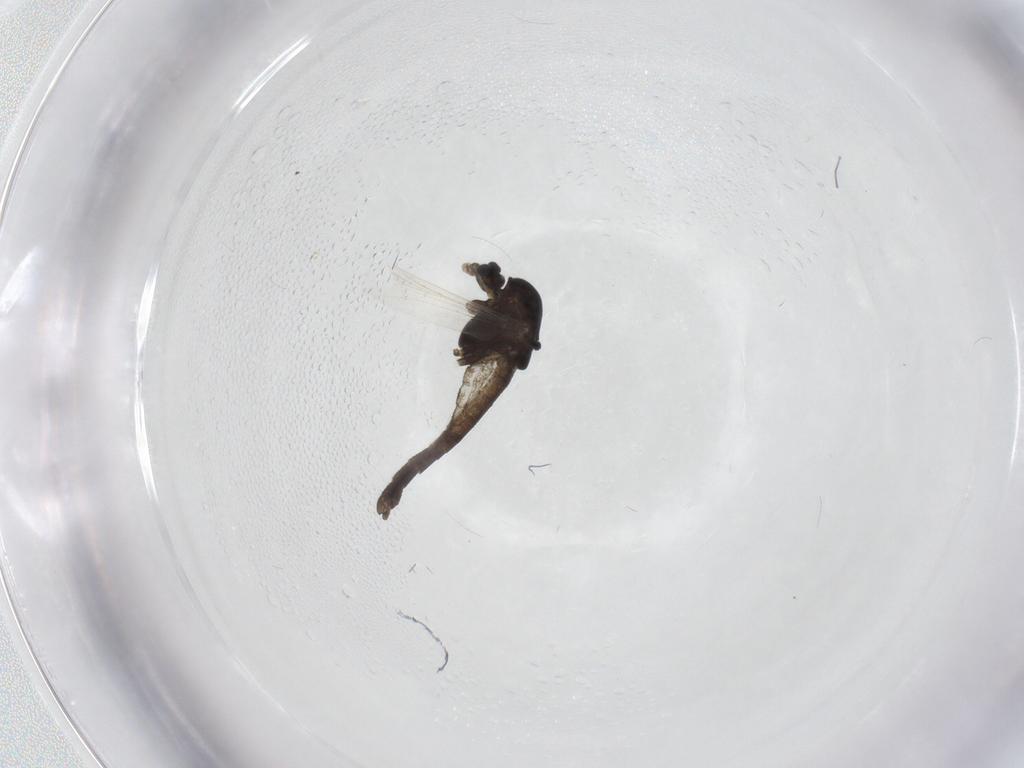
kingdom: Animalia
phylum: Arthropoda
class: Insecta
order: Diptera
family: Chironomidae
